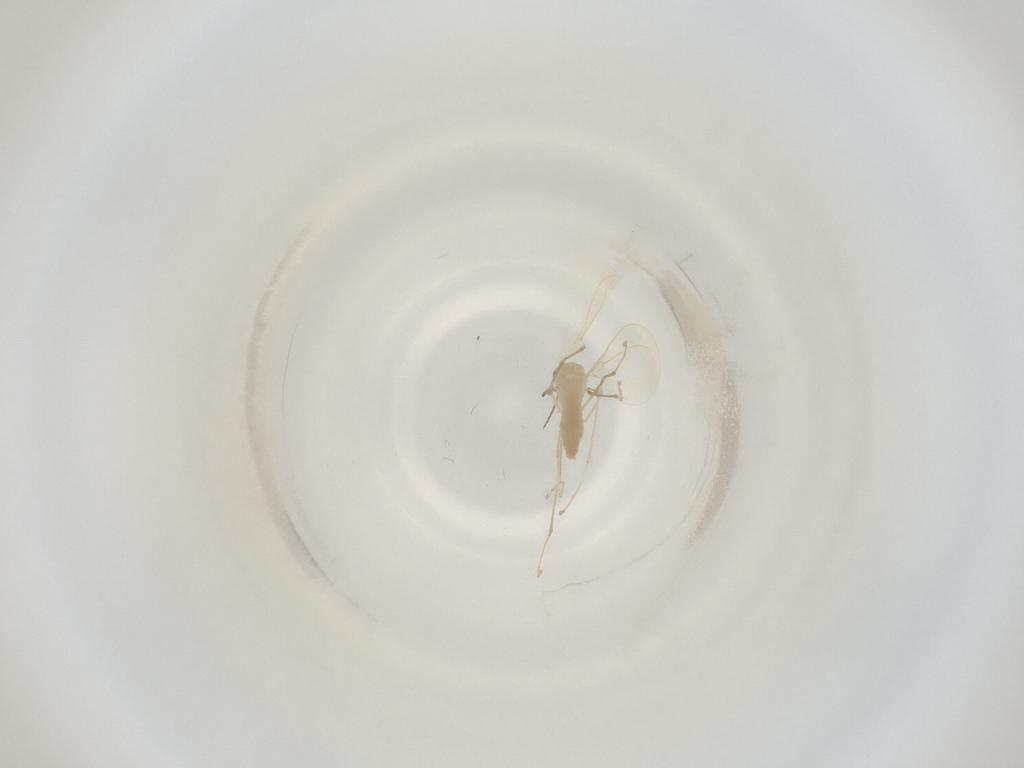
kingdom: Animalia
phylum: Arthropoda
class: Insecta
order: Diptera
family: Cecidomyiidae
